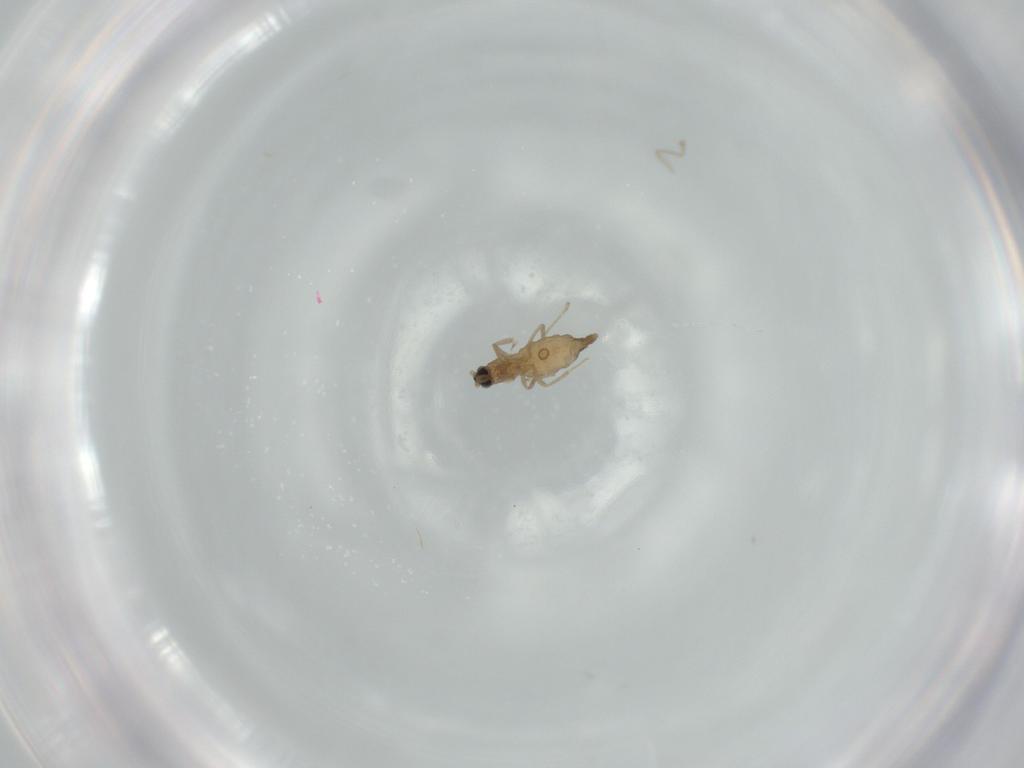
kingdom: Animalia
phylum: Arthropoda
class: Insecta
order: Diptera
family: Cecidomyiidae
